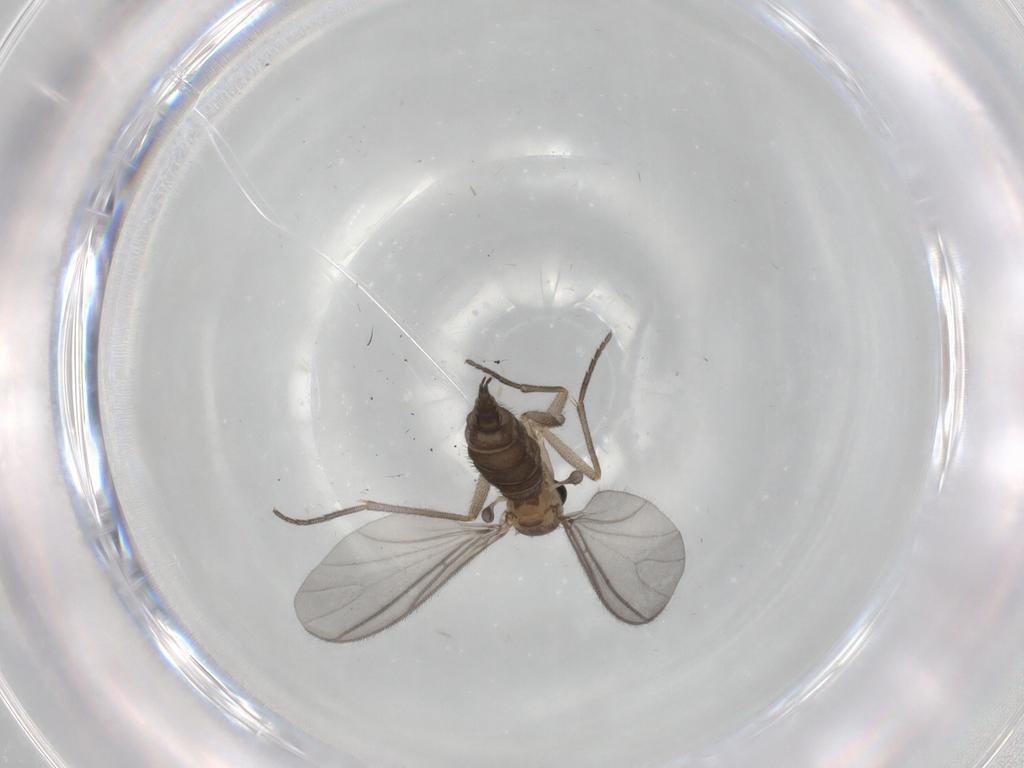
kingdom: Animalia
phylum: Arthropoda
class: Insecta
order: Diptera
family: Sciaridae
